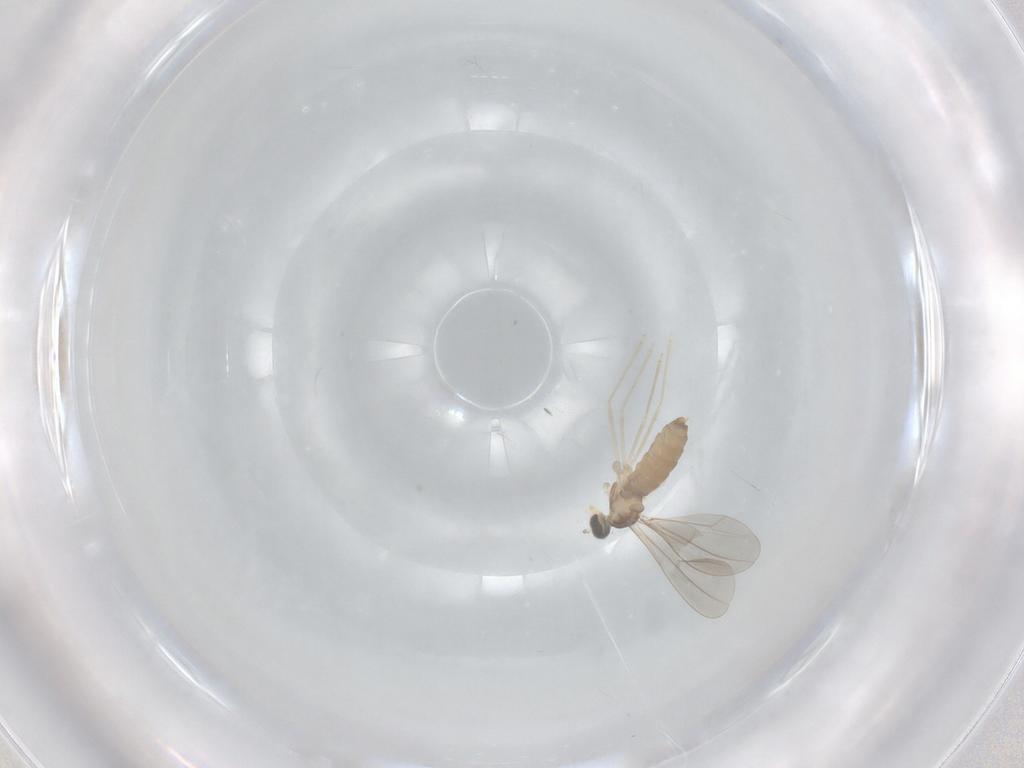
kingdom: Animalia
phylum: Arthropoda
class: Insecta
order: Diptera
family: Cecidomyiidae
